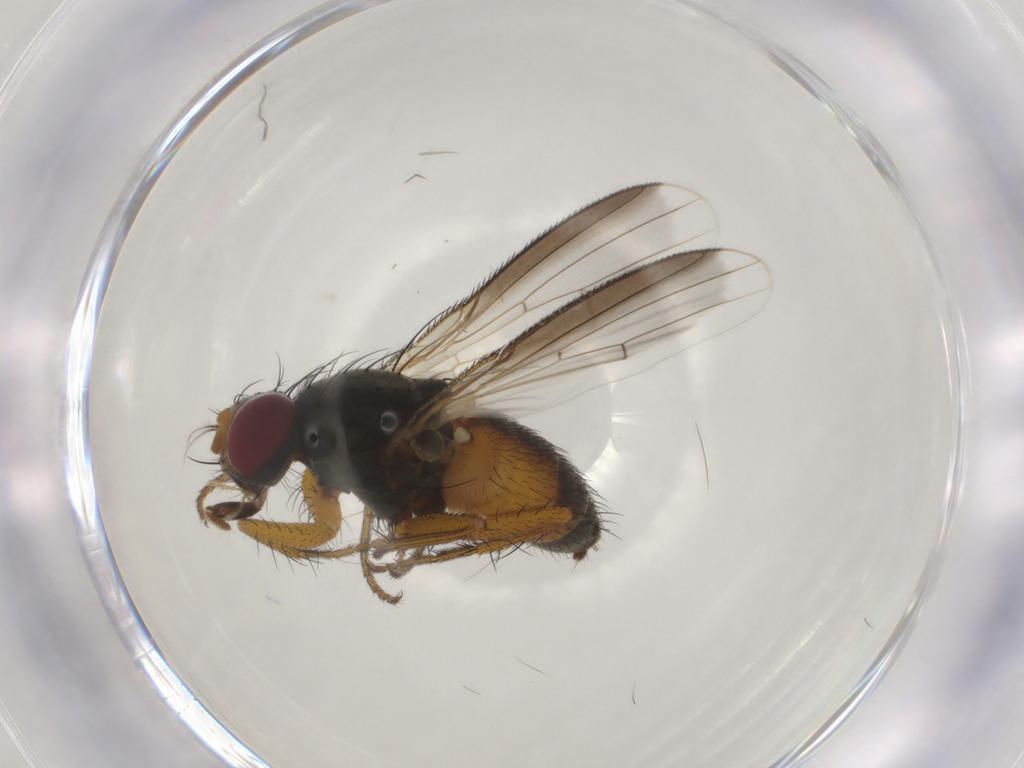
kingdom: Animalia
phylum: Arthropoda
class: Insecta
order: Diptera
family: Muscidae
